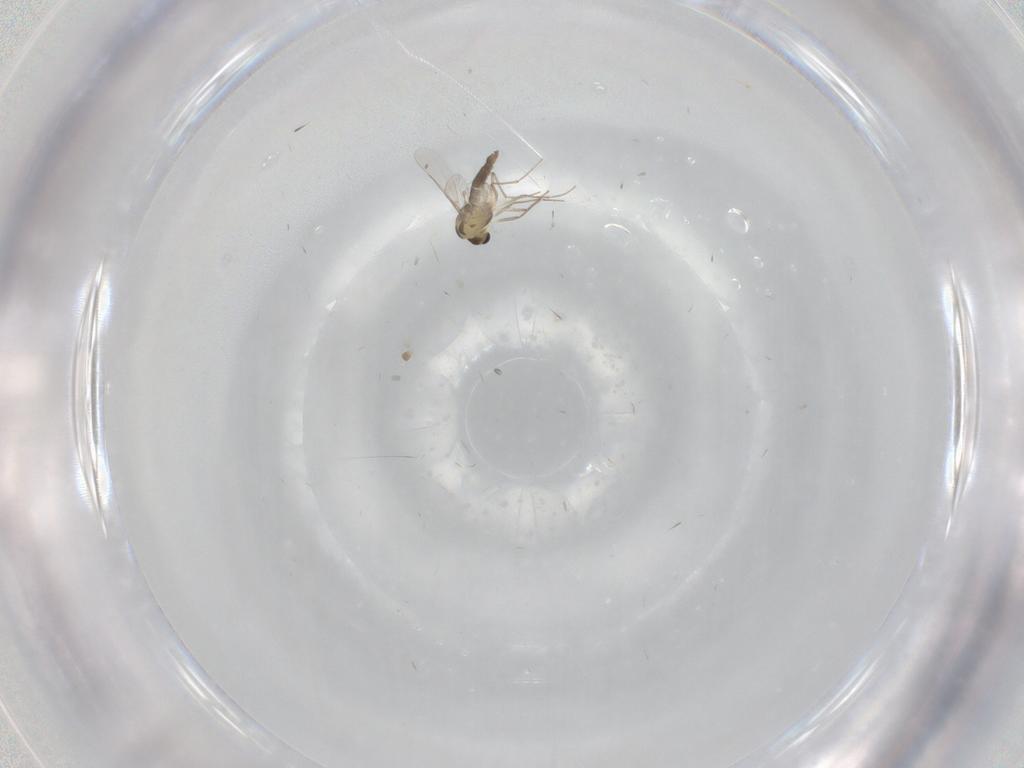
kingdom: Animalia
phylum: Arthropoda
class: Insecta
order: Diptera
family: Chironomidae
